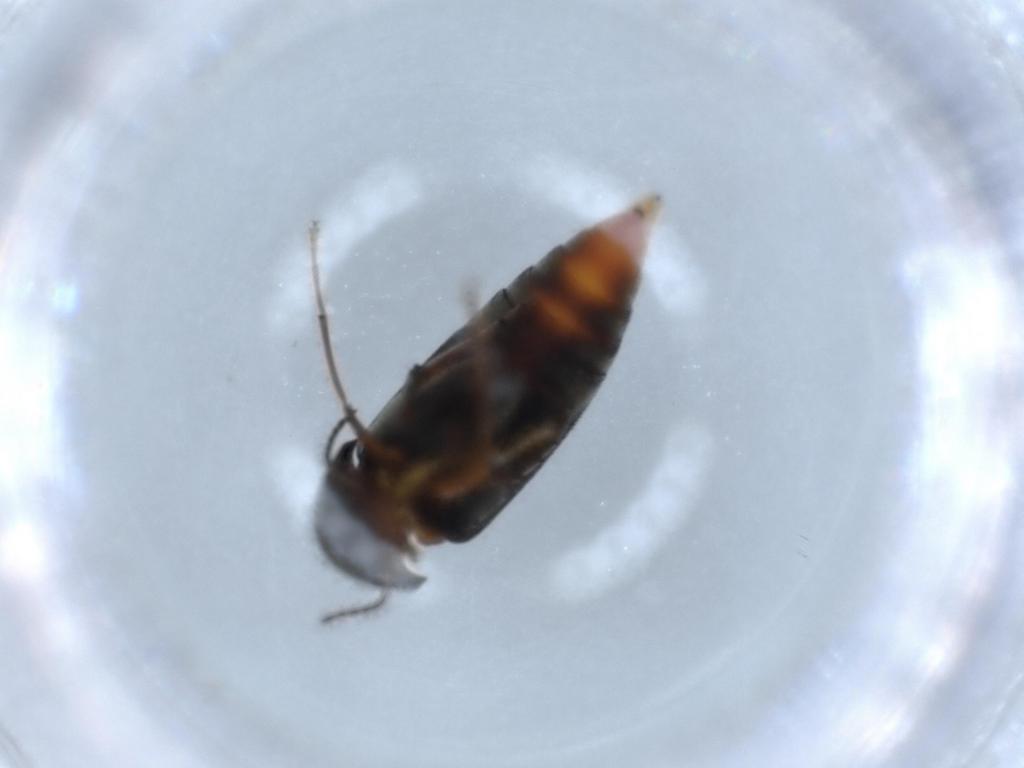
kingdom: Animalia
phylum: Arthropoda
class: Insecta
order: Coleoptera
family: Mordellidae
